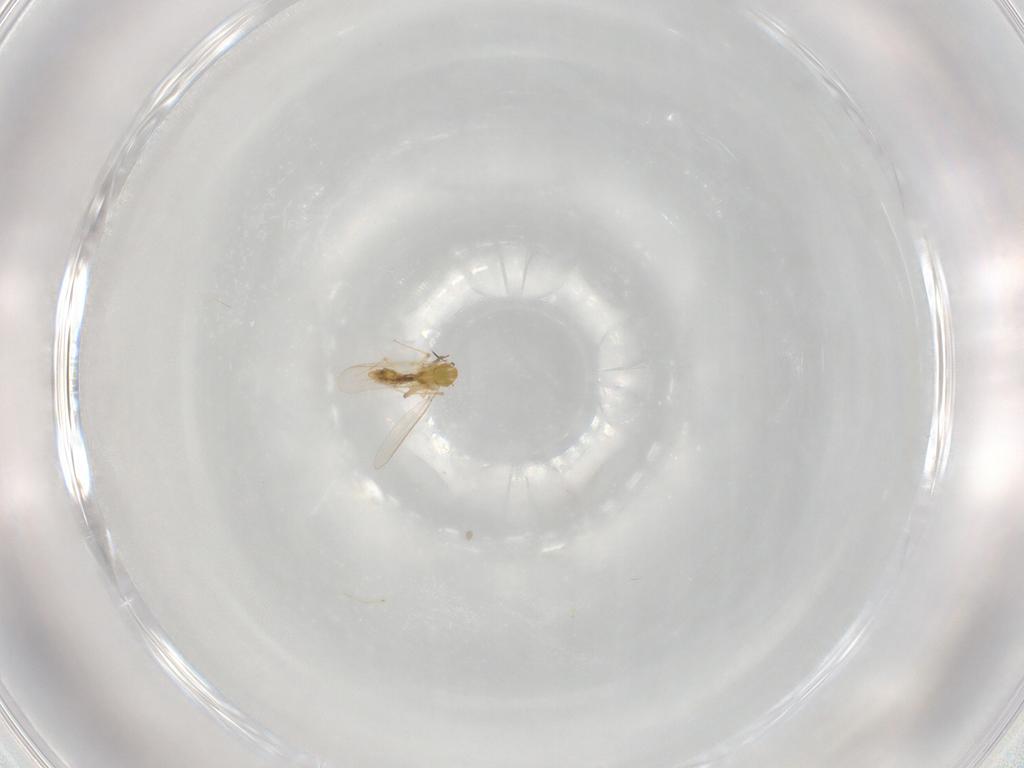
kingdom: Animalia
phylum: Arthropoda
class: Insecta
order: Diptera
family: Chironomidae
